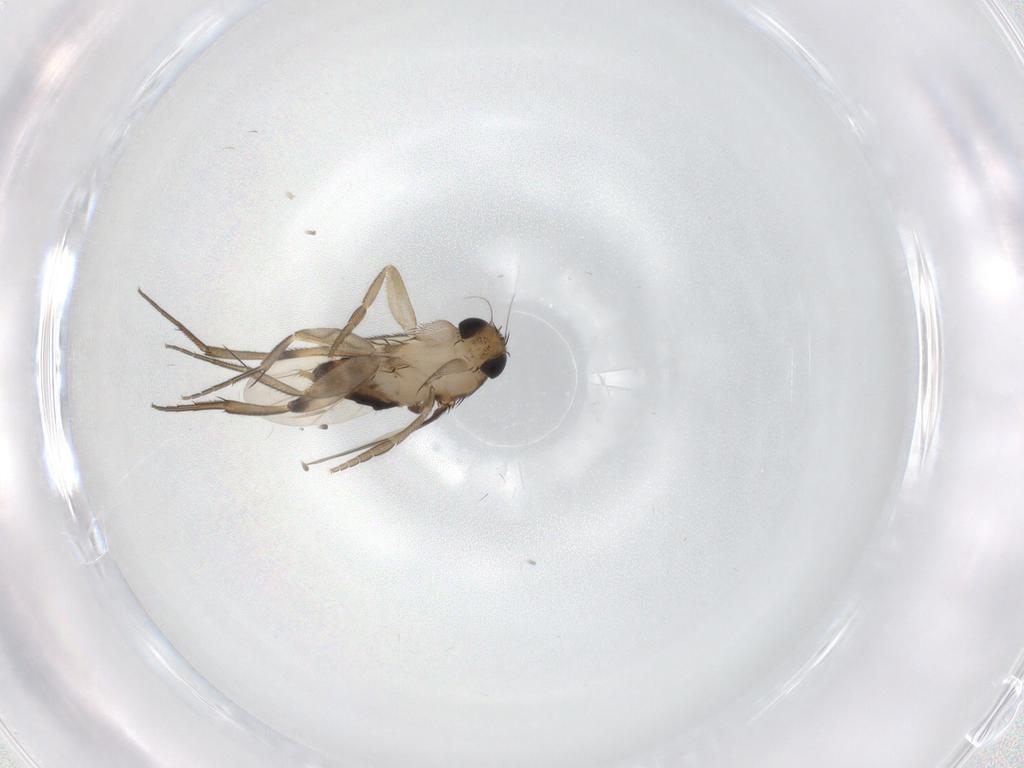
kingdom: Animalia
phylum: Arthropoda
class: Insecta
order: Diptera
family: Phoridae
